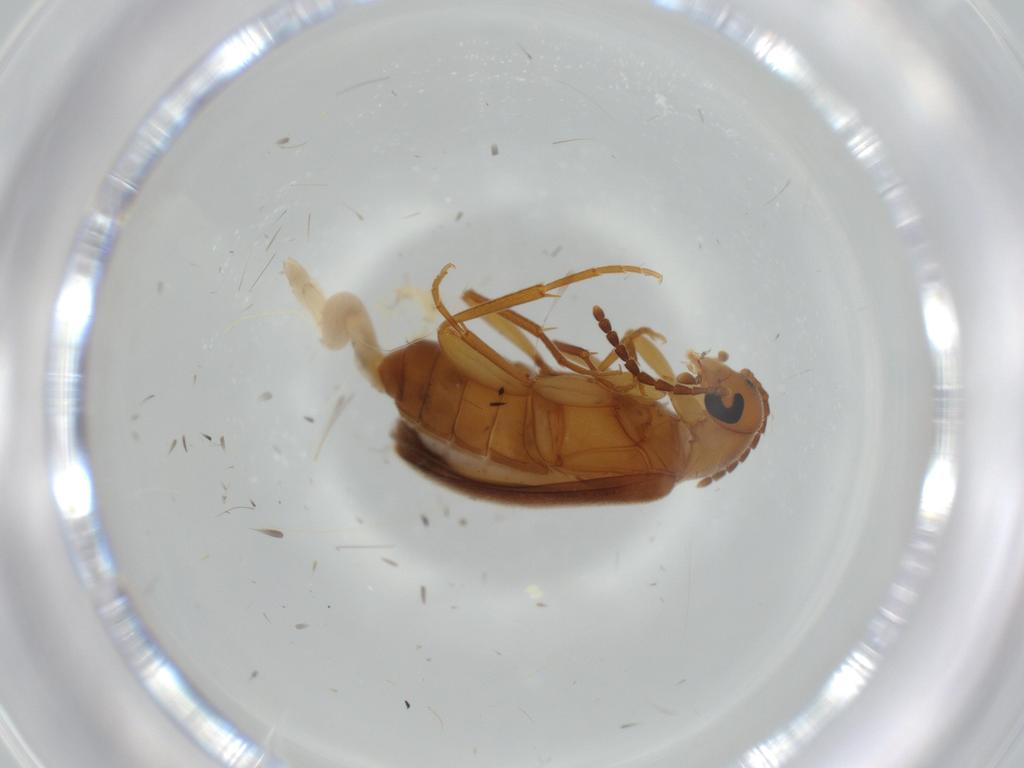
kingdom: Animalia
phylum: Arthropoda
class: Insecta
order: Coleoptera
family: Scraptiidae
